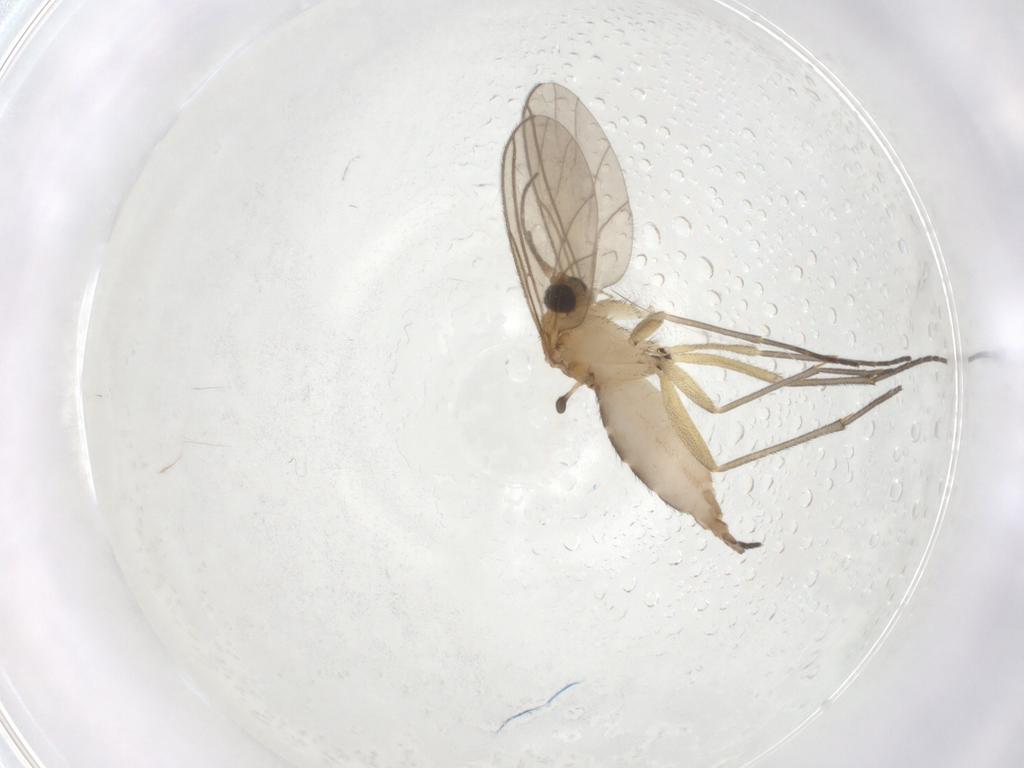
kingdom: Animalia
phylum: Arthropoda
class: Insecta
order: Diptera
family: Sciaridae
